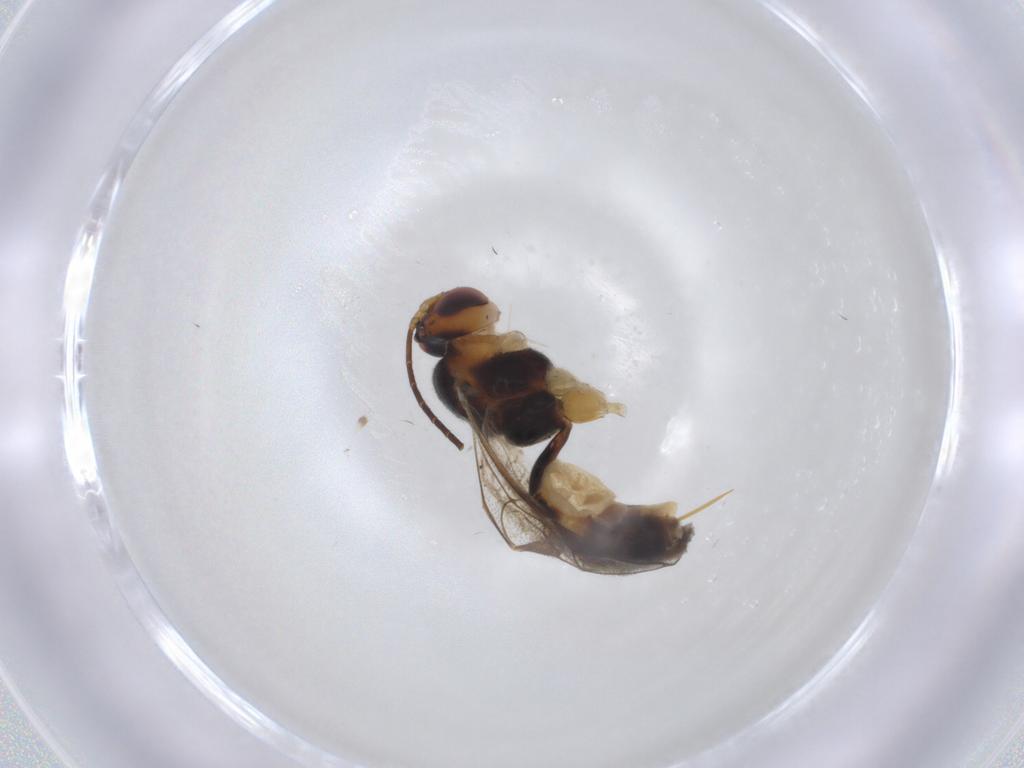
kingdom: Animalia
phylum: Arthropoda
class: Insecta
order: Hymenoptera
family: Ichneumonidae
